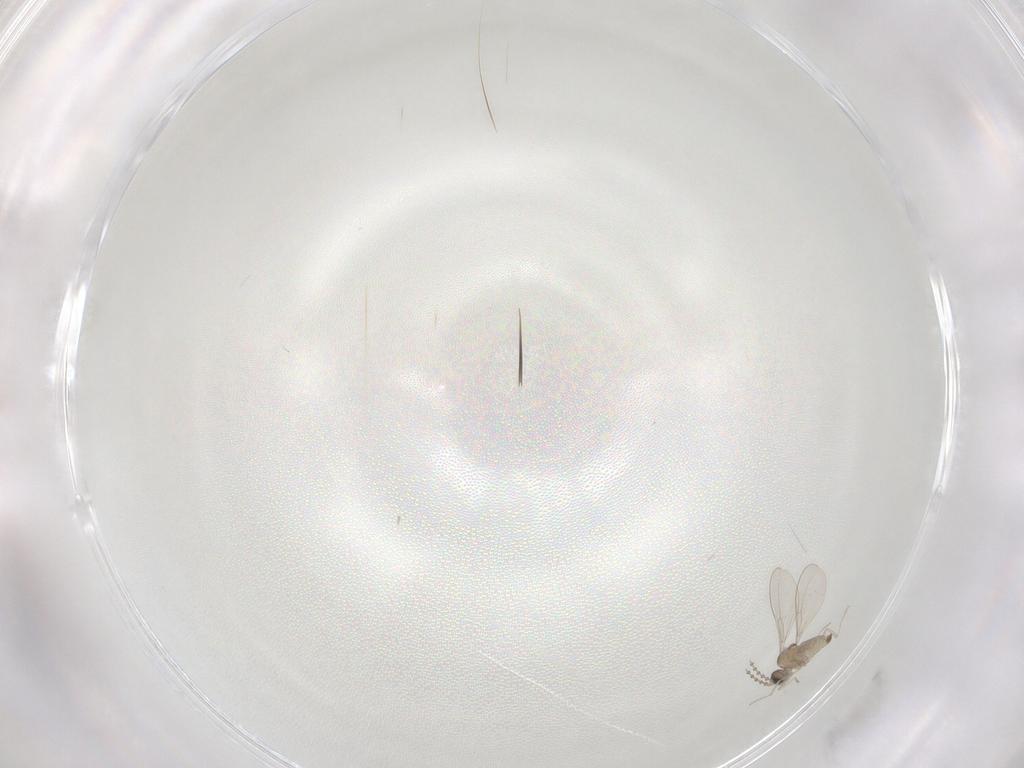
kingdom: Animalia
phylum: Arthropoda
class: Insecta
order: Diptera
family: Cecidomyiidae
